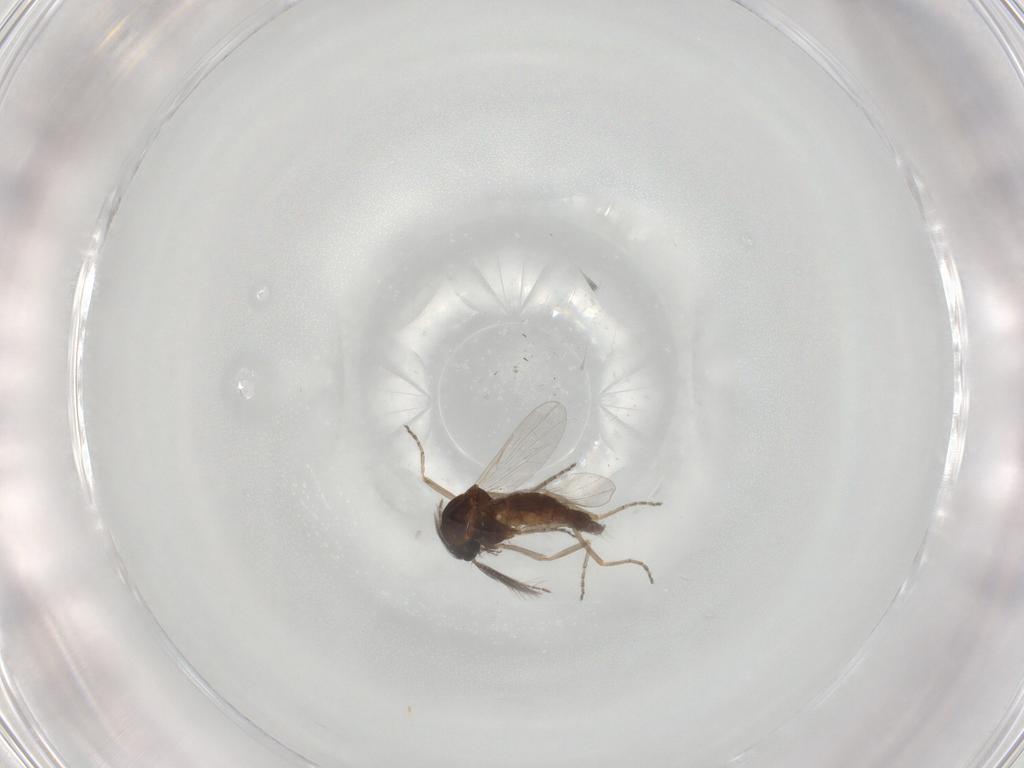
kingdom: Animalia
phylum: Arthropoda
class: Insecta
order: Diptera
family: Ceratopogonidae
